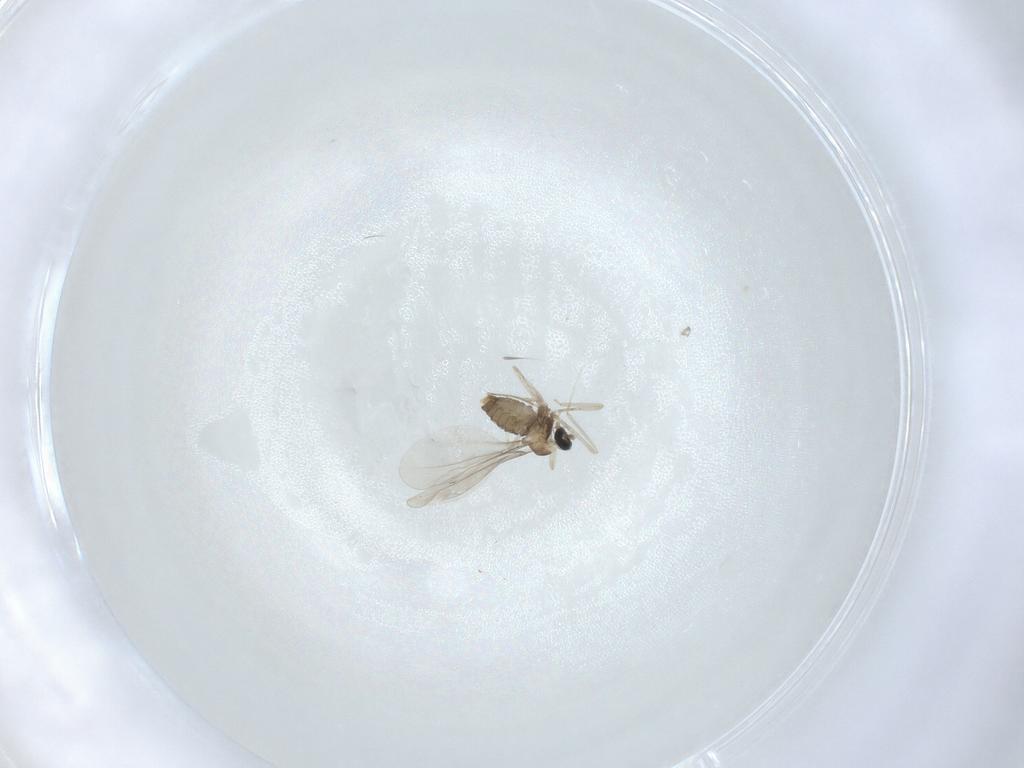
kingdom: Animalia
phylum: Arthropoda
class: Insecta
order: Diptera
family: Cecidomyiidae
